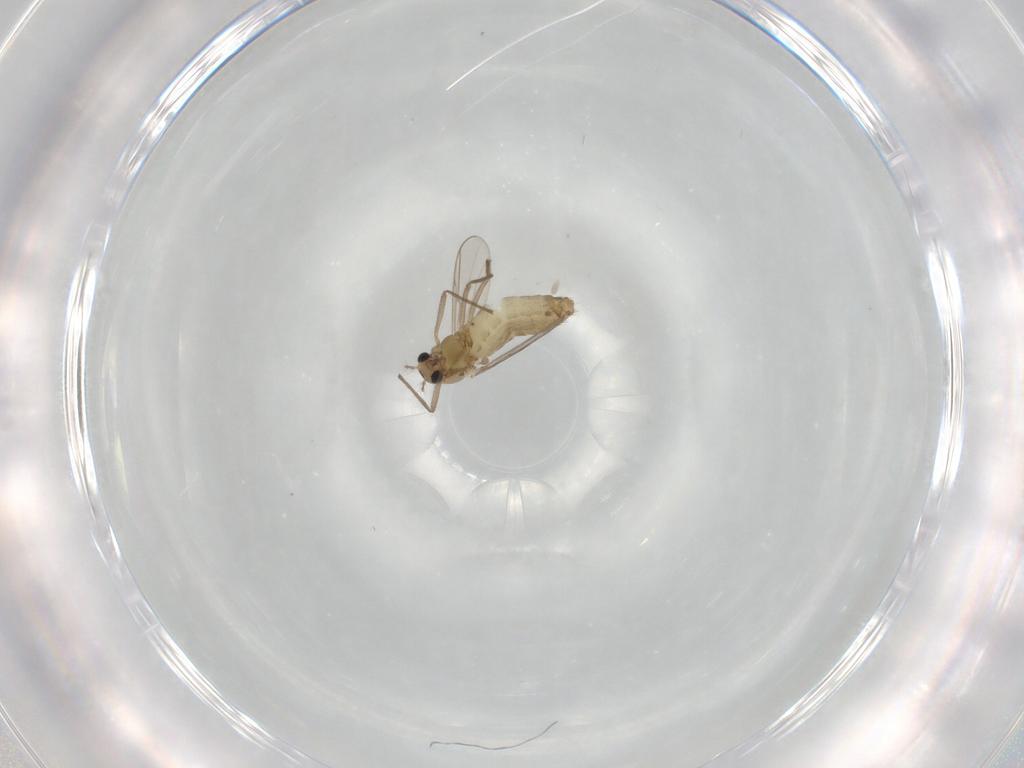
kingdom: Animalia
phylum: Arthropoda
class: Insecta
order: Diptera
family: Chironomidae
